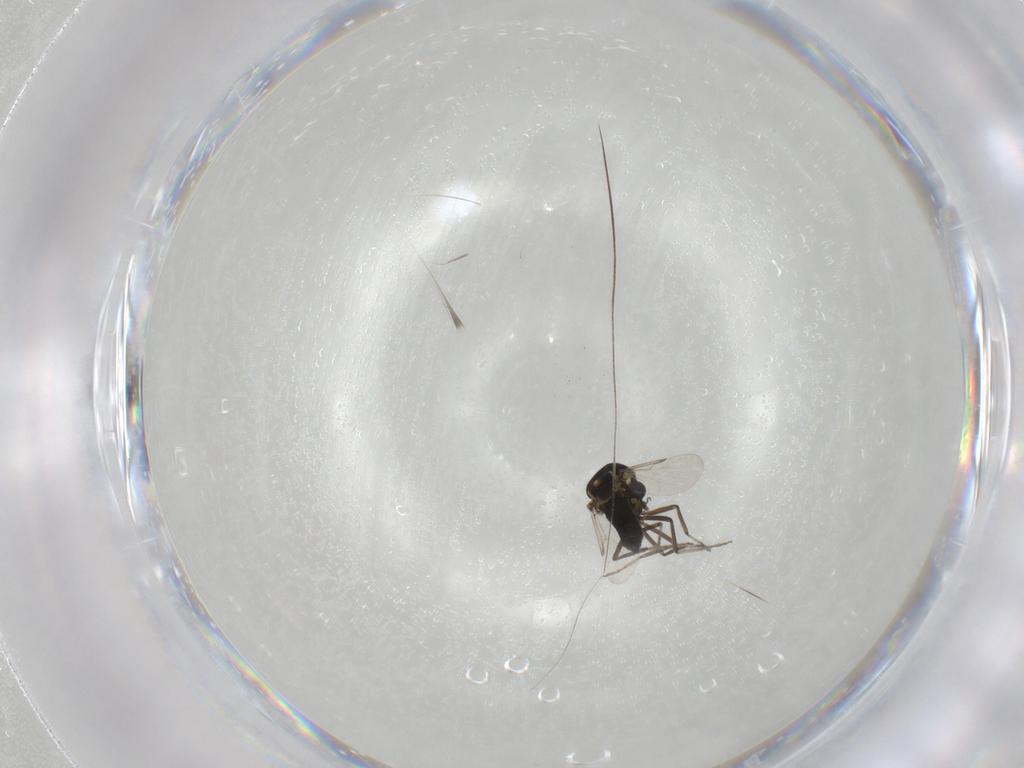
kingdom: Animalia
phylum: Arthropoda
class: Insecta
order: Diptera
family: Ceratopogonidae
